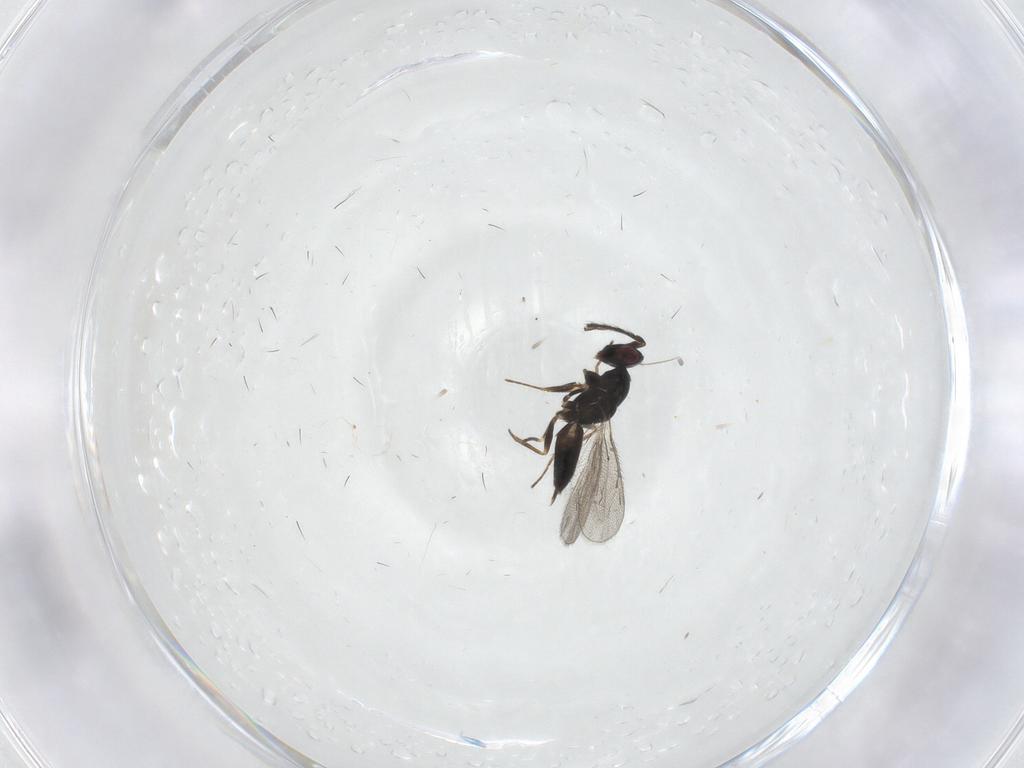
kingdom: Animalia
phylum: Arthropoda
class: Insecta
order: Hymenoptera
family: Eulophidae
